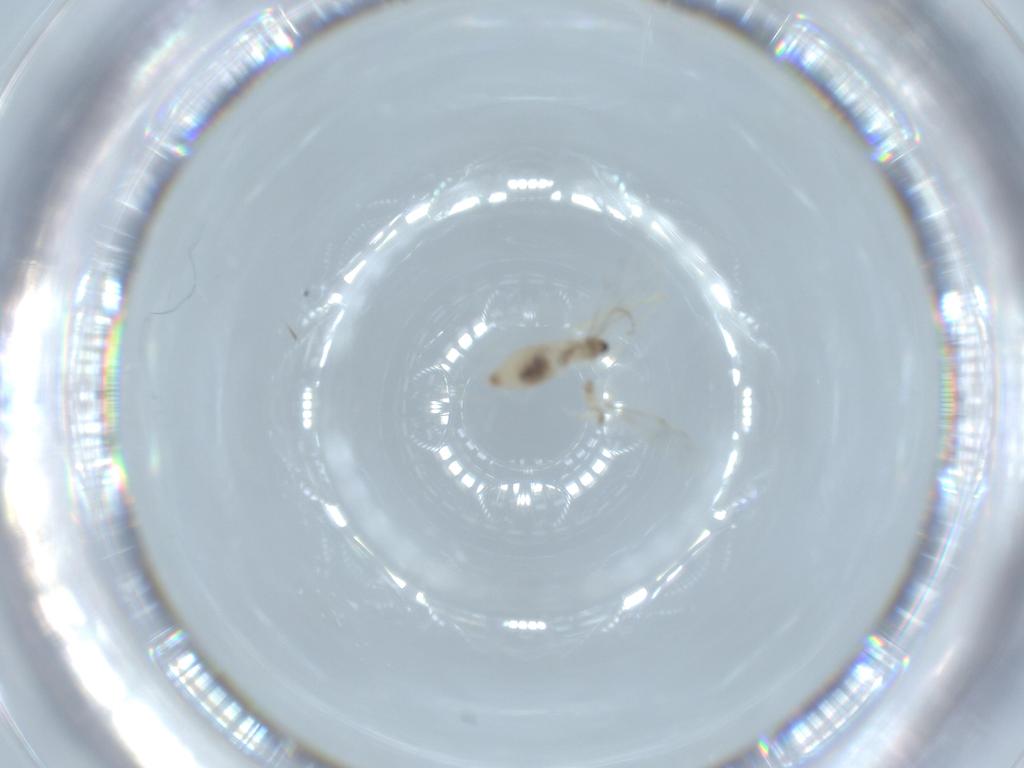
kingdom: Animalia
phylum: Arthropoda
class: Insecta
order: Diptera
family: Cecidomyiidae
